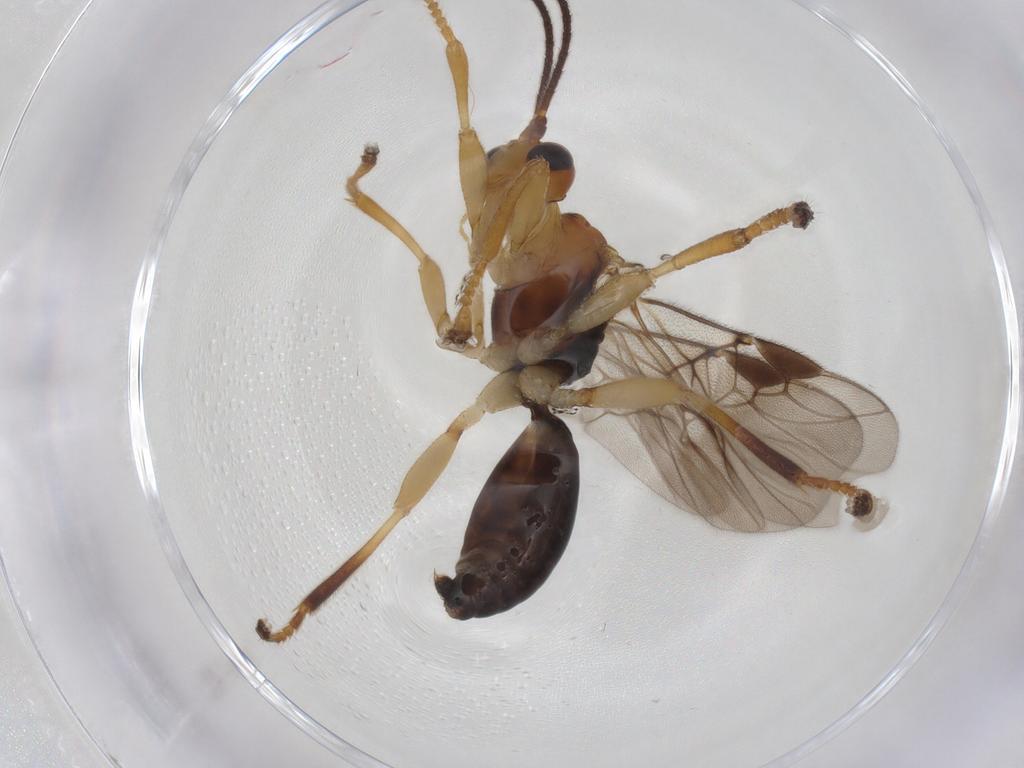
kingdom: Animalia
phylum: Arthropoda
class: Insecta
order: Hymenoptera
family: Braconidae
